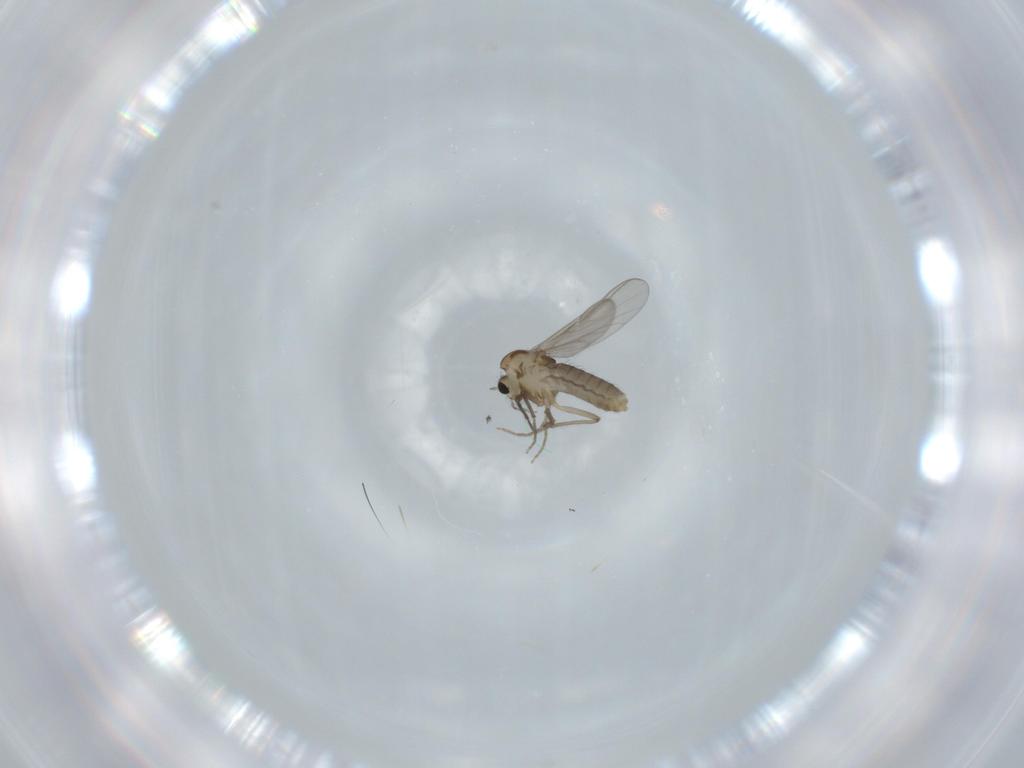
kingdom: Animalia
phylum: Arthropoda
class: Insecta
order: Diptera
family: Chironomidae
